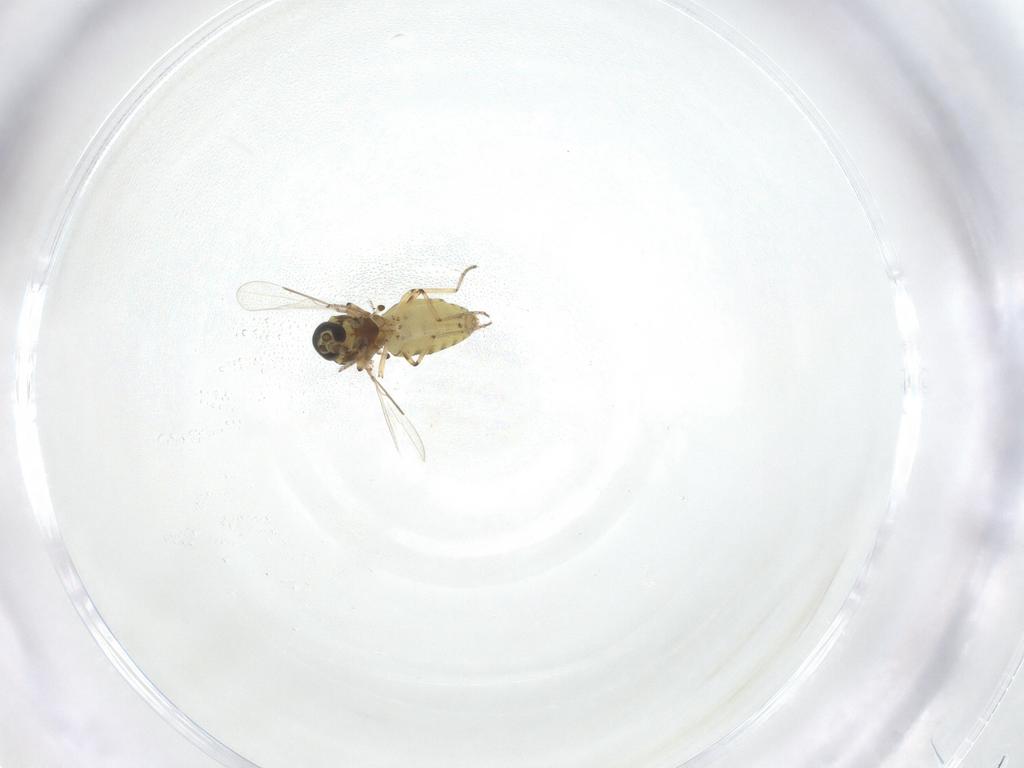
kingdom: Animalia
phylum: Arthropoda
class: Insecta
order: Diptera
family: Ceratopogonidae
